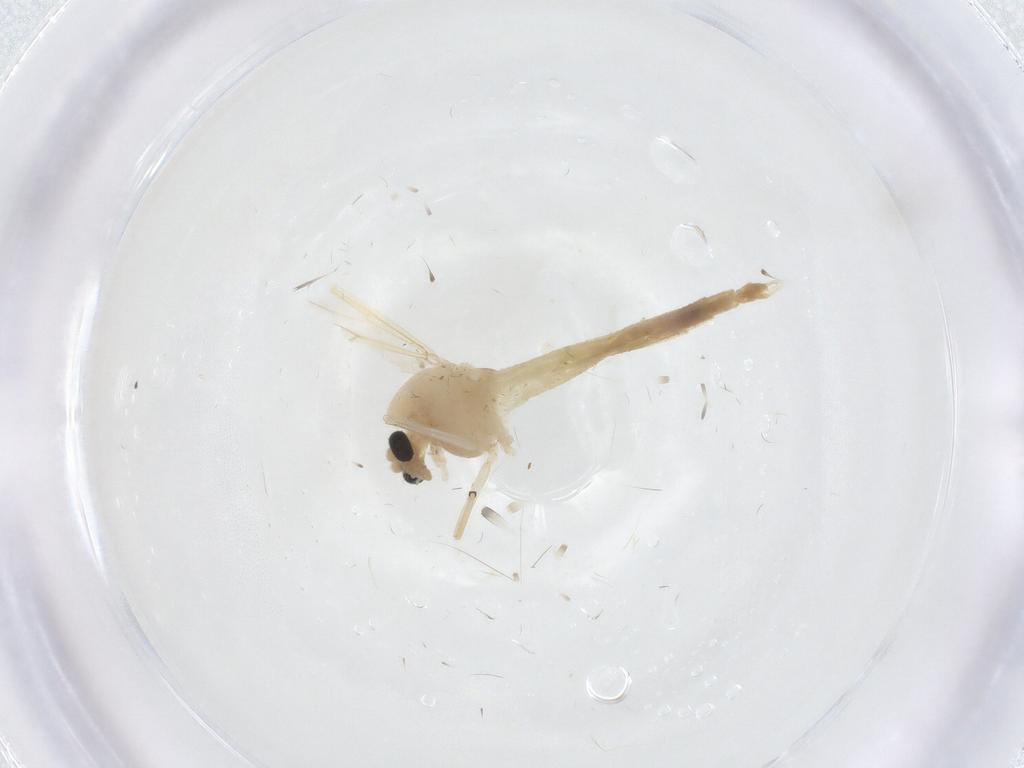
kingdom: Animalia
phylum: Arthropoda
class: Insecta
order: Diptera
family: Chironomidae
